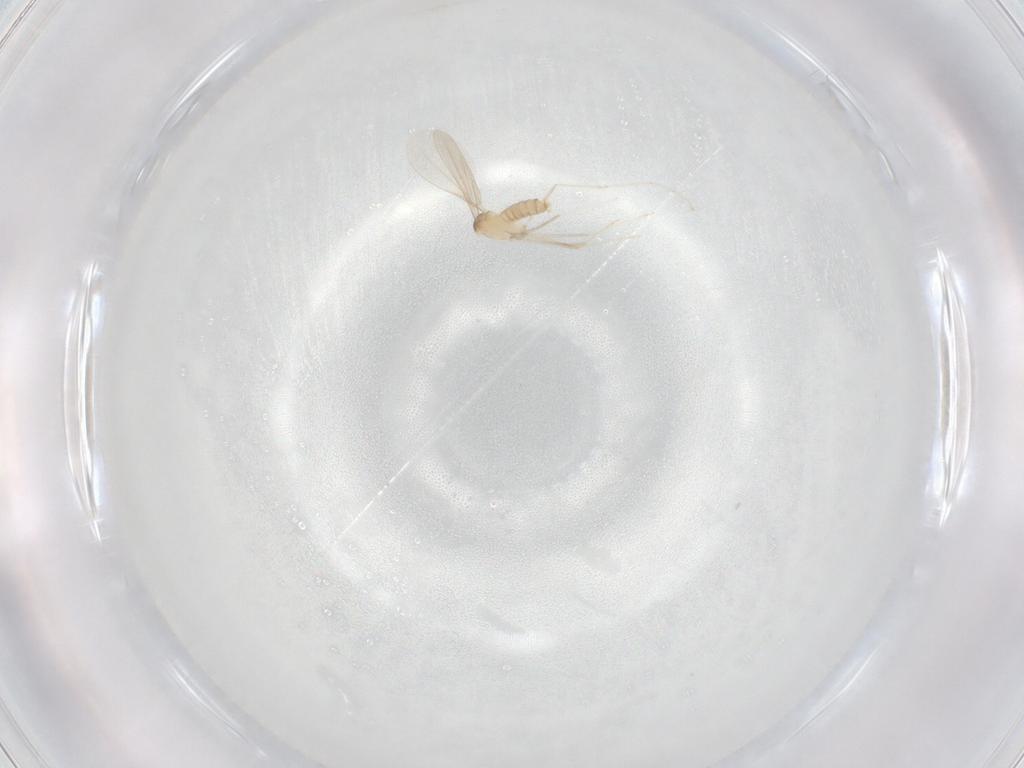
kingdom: Animalia
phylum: Arthropoda
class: Insecta
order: Diptera
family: Cecidomyiidae
